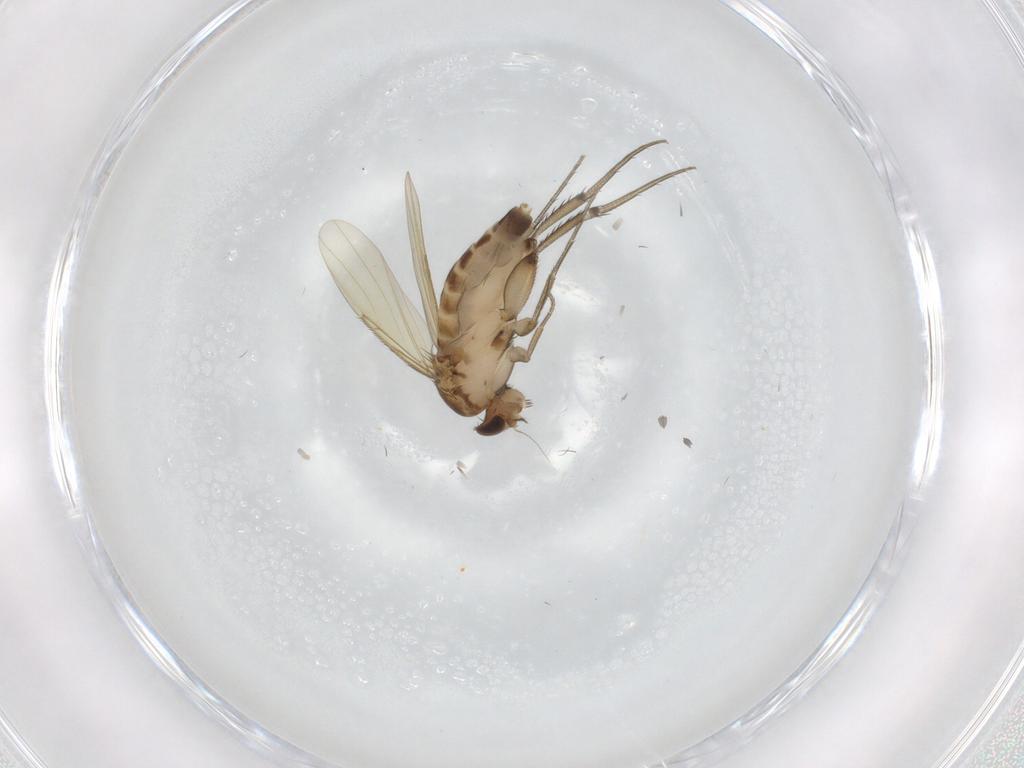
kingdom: Animalia
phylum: Arthropoda
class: Insecta
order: Diptera
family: Phoridae
